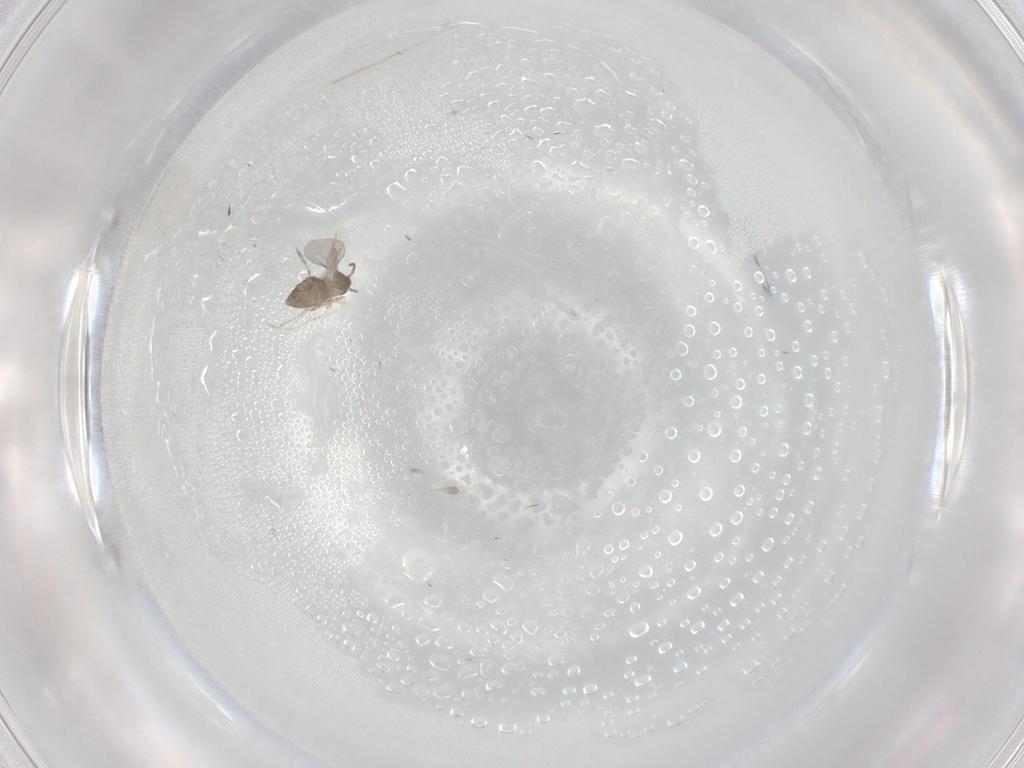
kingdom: Animalia
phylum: Arthropoda
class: Insecta
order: Diptera
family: Cecidomyiidae
